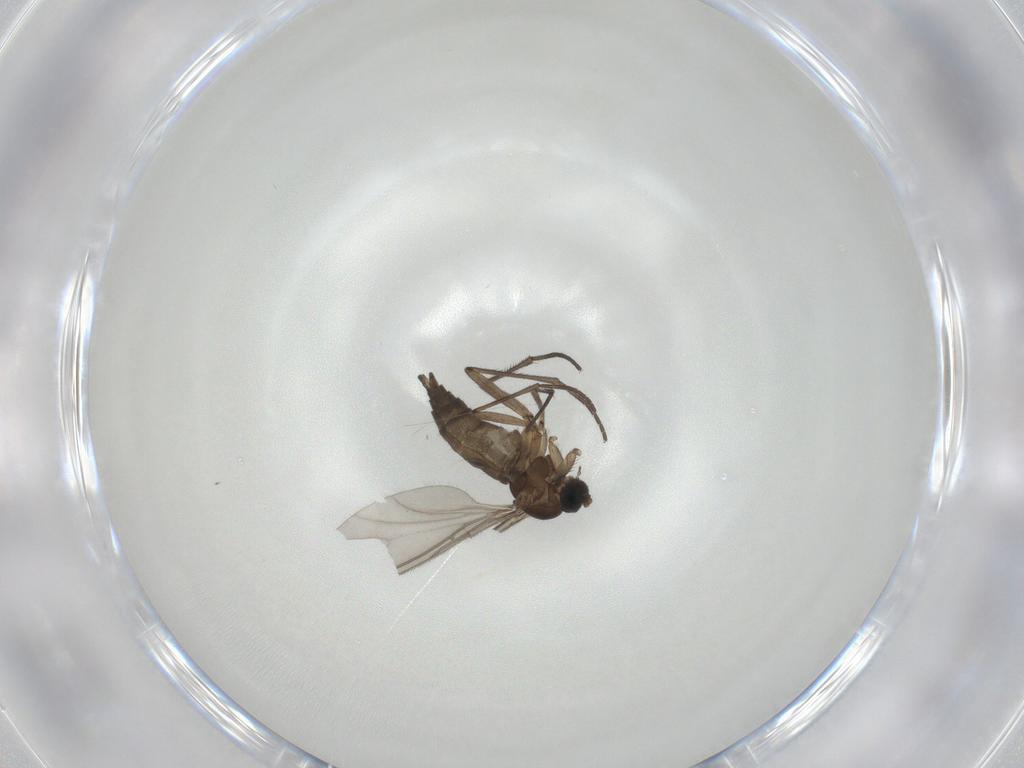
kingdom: Animalia
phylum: Arthropoda
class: Insecta
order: Diptera
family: Sciaridae
